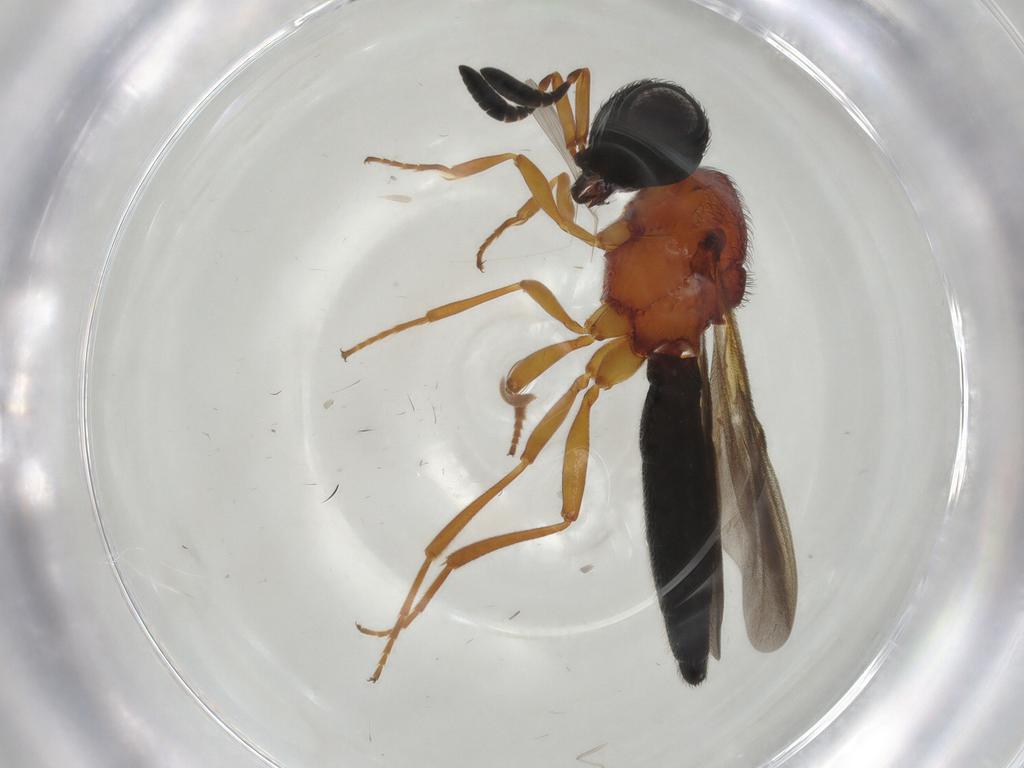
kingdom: Animalia
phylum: Arthropoda
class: Insecta
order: Hymenoptera
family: Scelionidae
